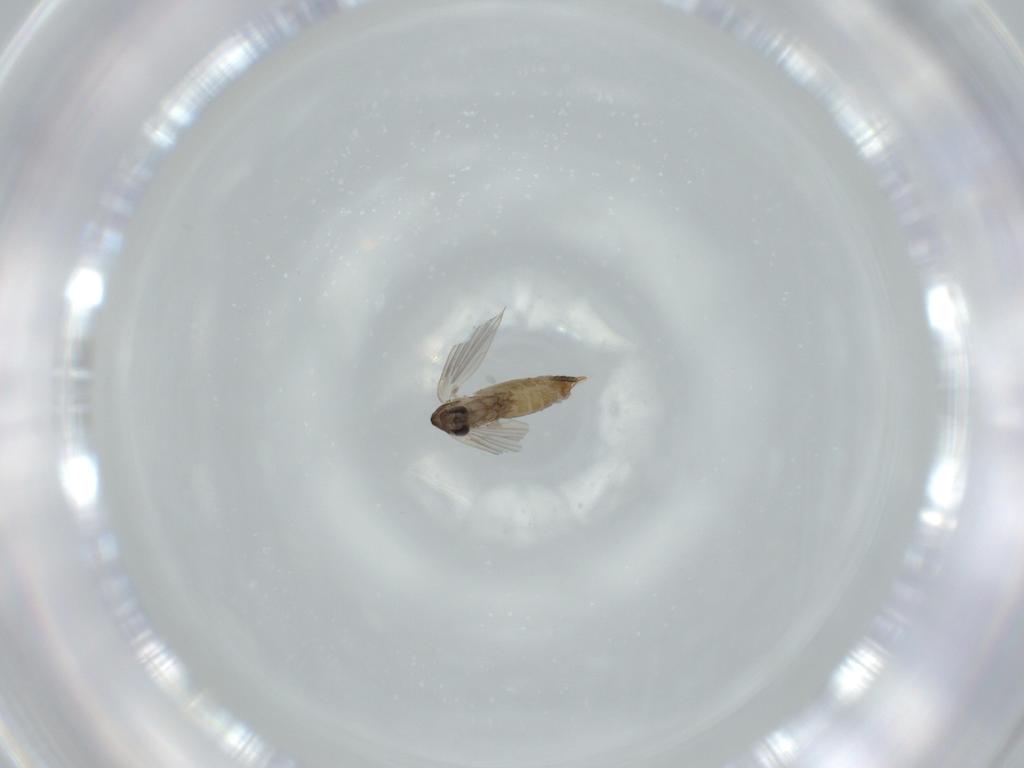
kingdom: Animalia
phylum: Arthropoda
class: Insecta
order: Diptera
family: Psychodidae
